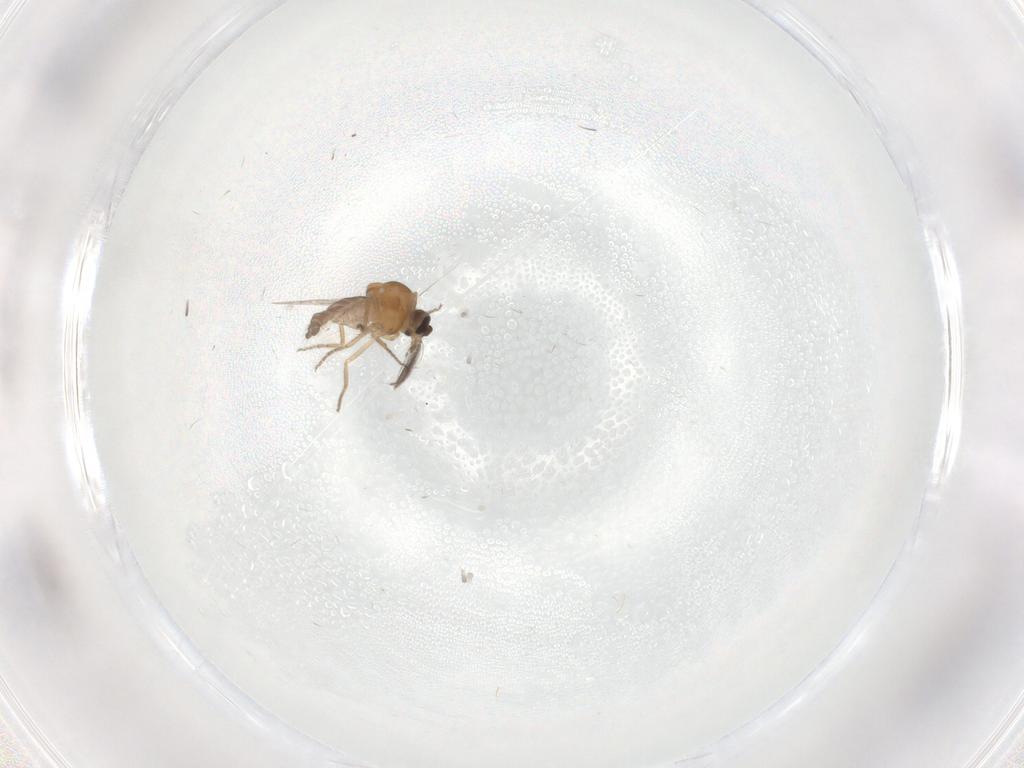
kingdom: Animalia
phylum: Arthropoda
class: Insecta
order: Diptera
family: Ceratopogonidae
